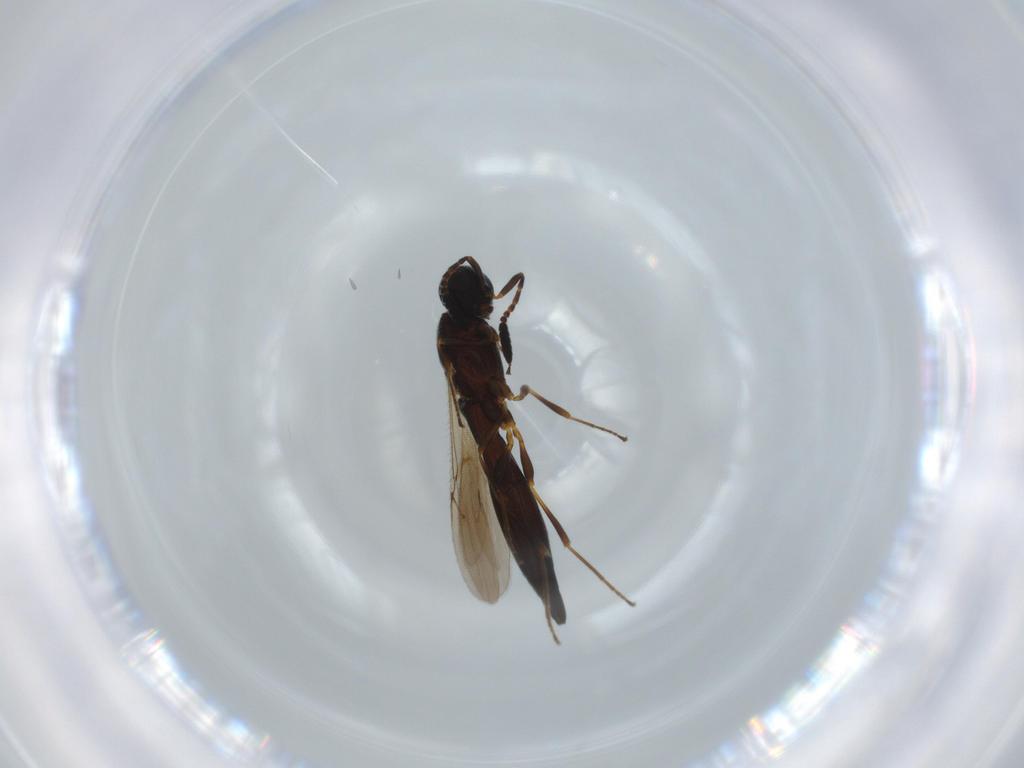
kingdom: Animalia
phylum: Arthropoda
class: Insecta
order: Hymenoptera
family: Scelionidae
